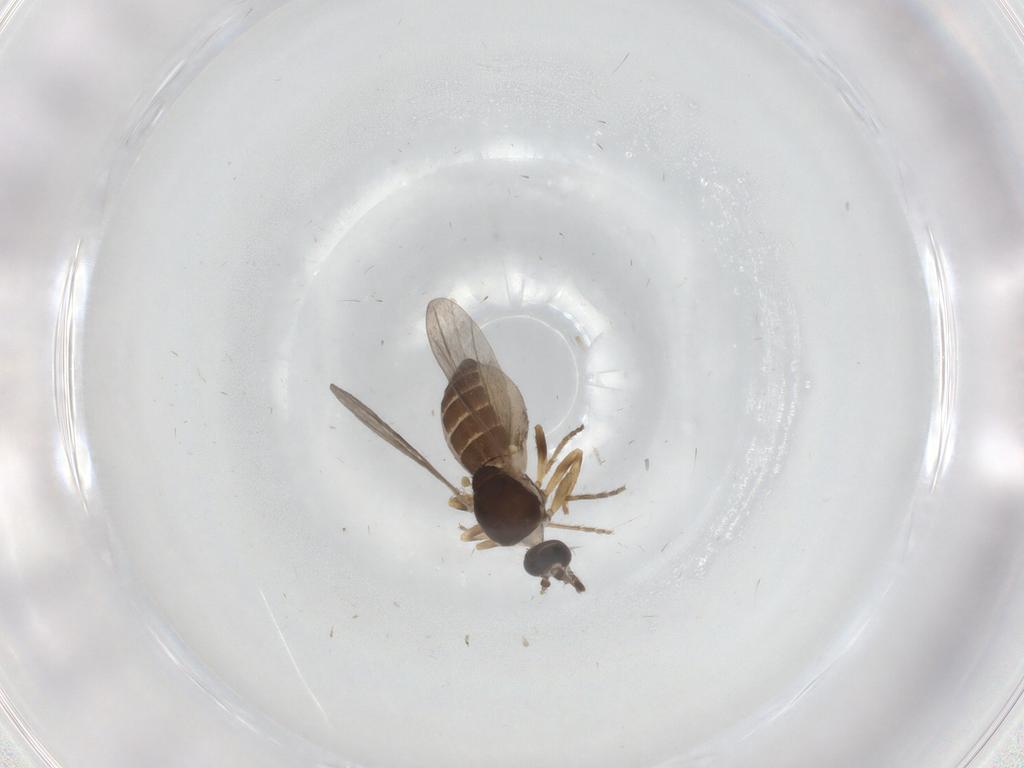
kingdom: Animalia
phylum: Arthropoda
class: Insecta
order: Diptera
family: Ceratopogonidae
